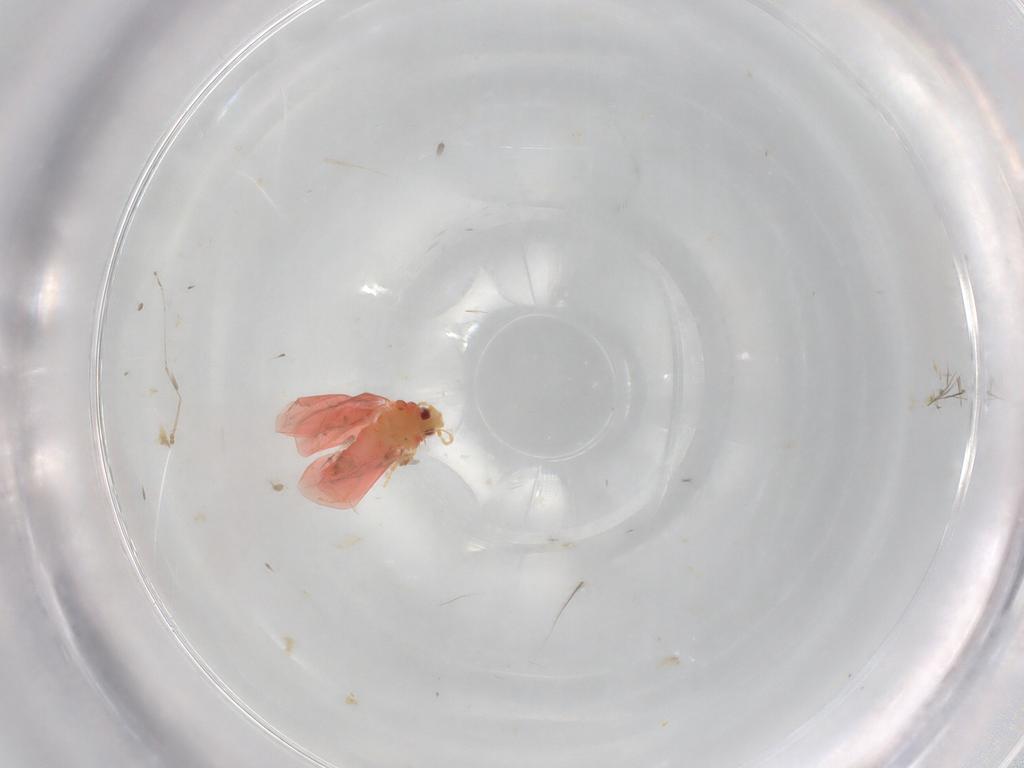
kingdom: Animalia
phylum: Arthropoda
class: Insecta
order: Hemiptera
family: Aleyrodidae
